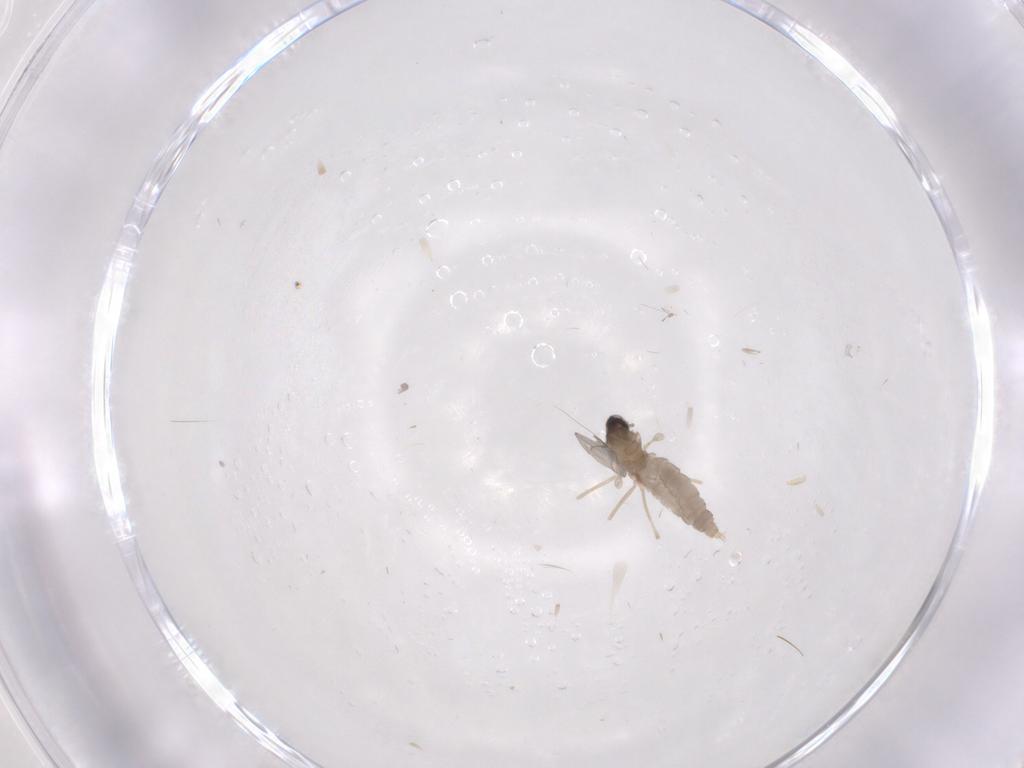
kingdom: Animalia
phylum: Arthropoda
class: Insecta
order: Diptera
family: Cecidomyiidae
